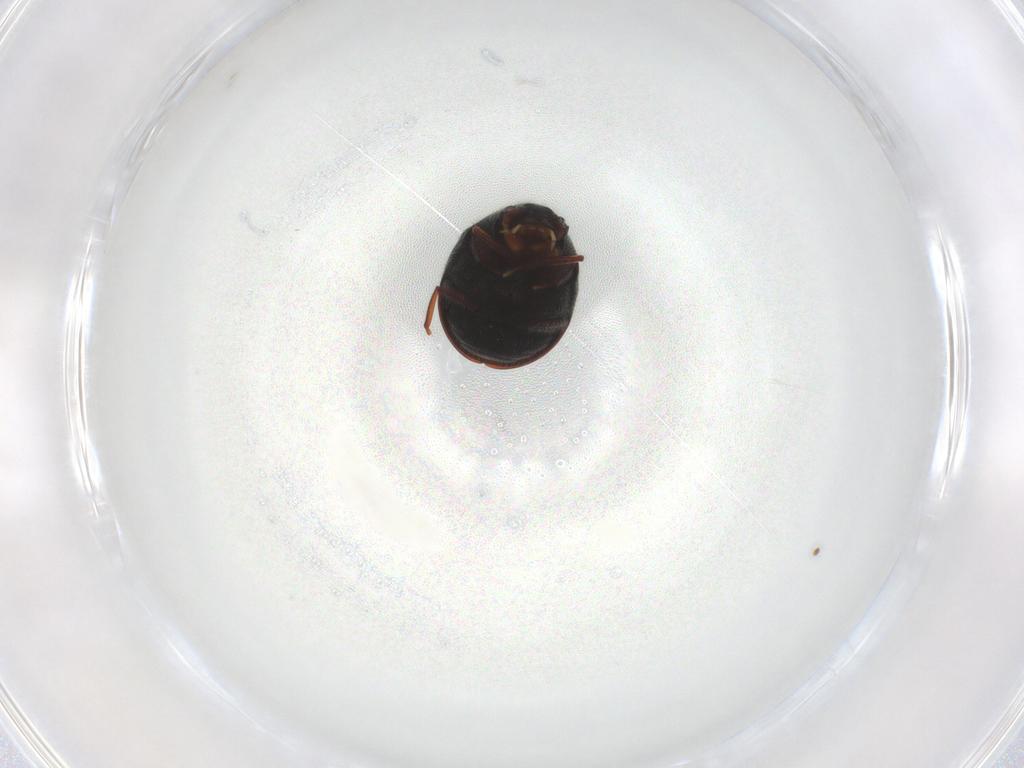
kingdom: Animalia
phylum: Arthropoda
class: Insecta
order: Coleoptera
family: Ptinidae
